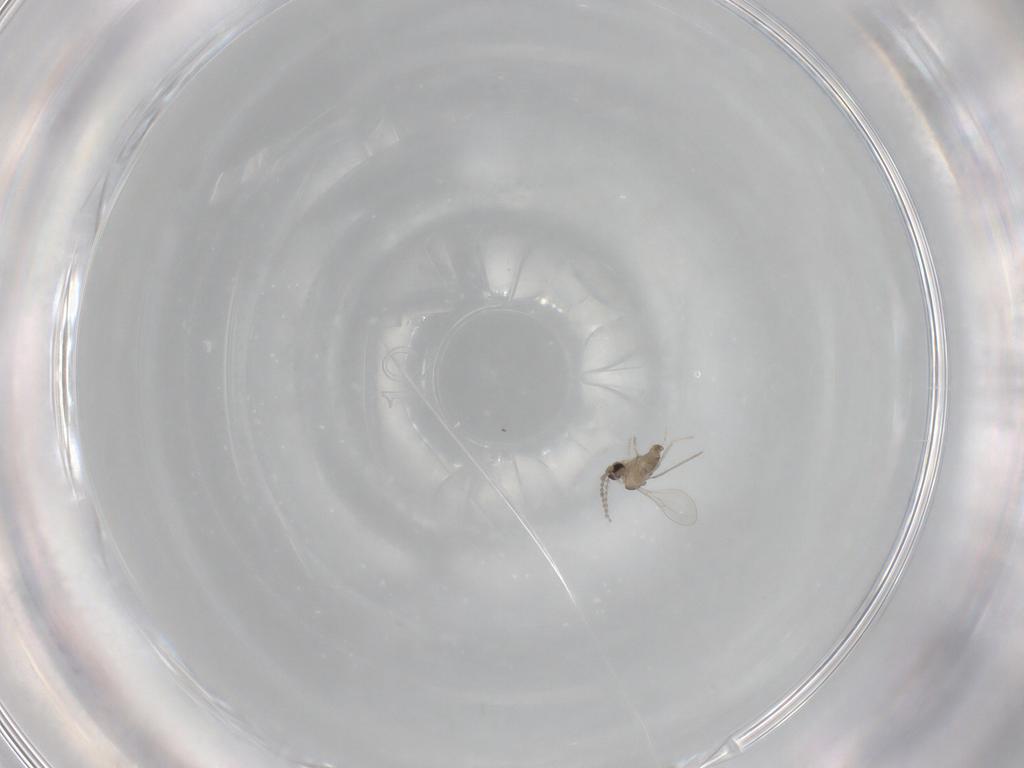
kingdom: Animalia
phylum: Arthropoda
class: Insecta
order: Diptera
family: Cecidomyiidae
